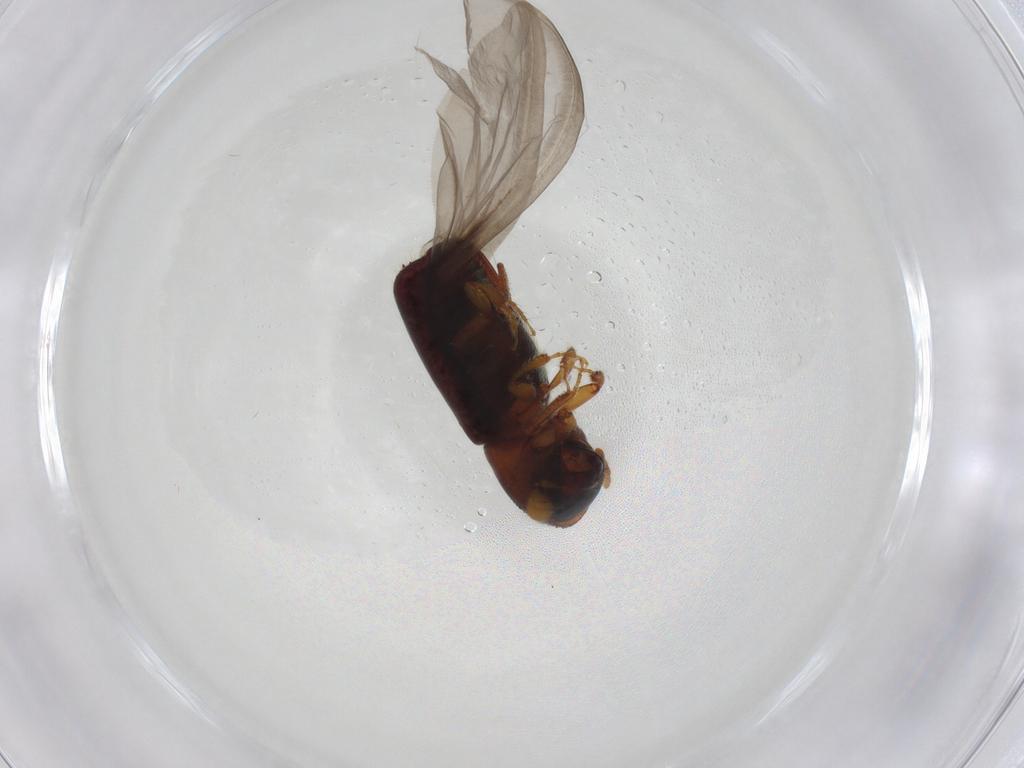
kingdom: Animalia
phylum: Arthropoda
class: Insecta
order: Coleoptera
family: Curculionidae
